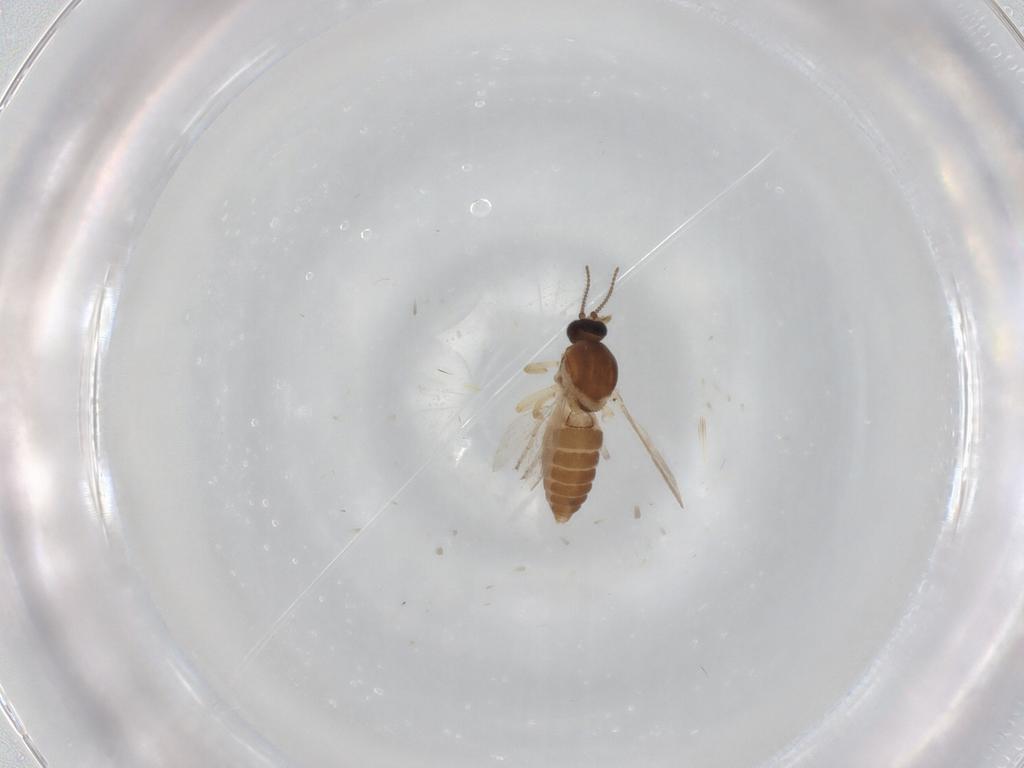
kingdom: Animalia
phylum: Arthropoda
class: Insecta
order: Diptera
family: Ceratopogonidae
